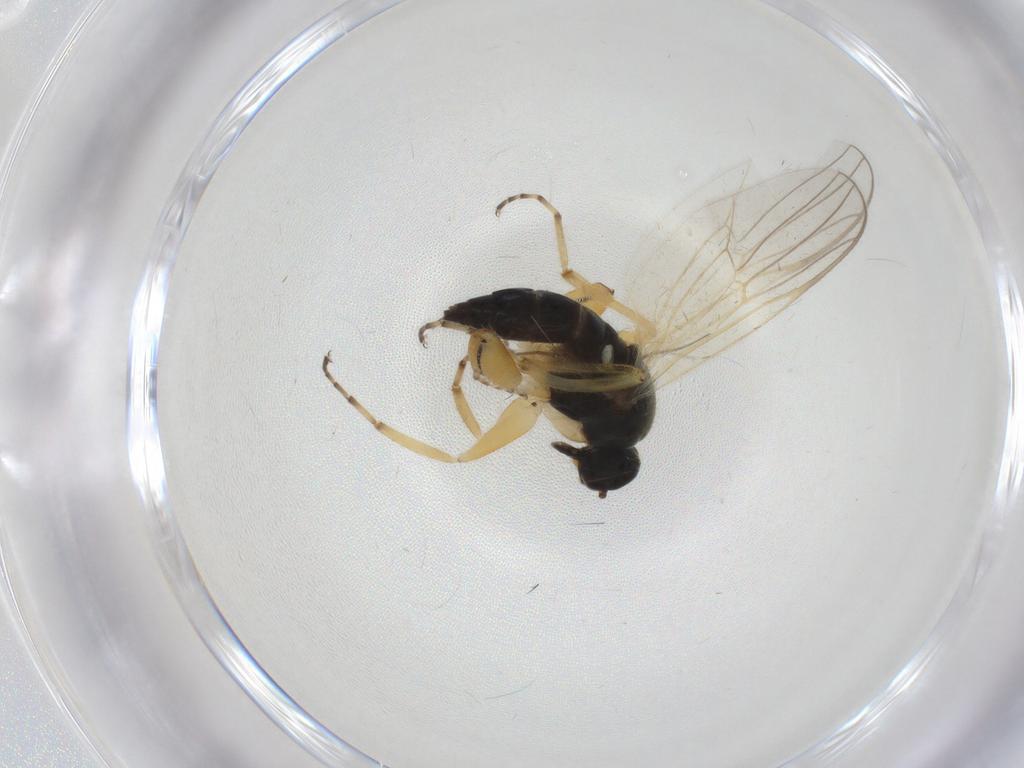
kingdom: Animalia
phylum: Arthropoda
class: Insecta
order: Diptera
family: Hybotidae
